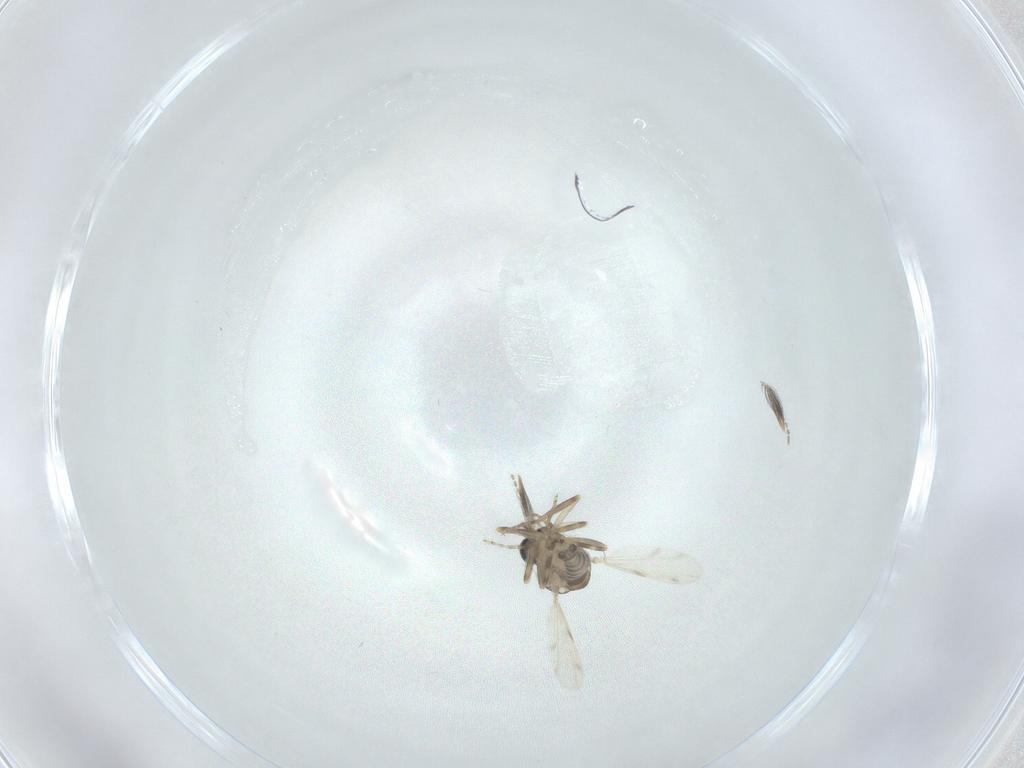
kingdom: Animalia
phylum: Arthropoda
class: Insecta
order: Diptera
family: Ceratopogonidae
